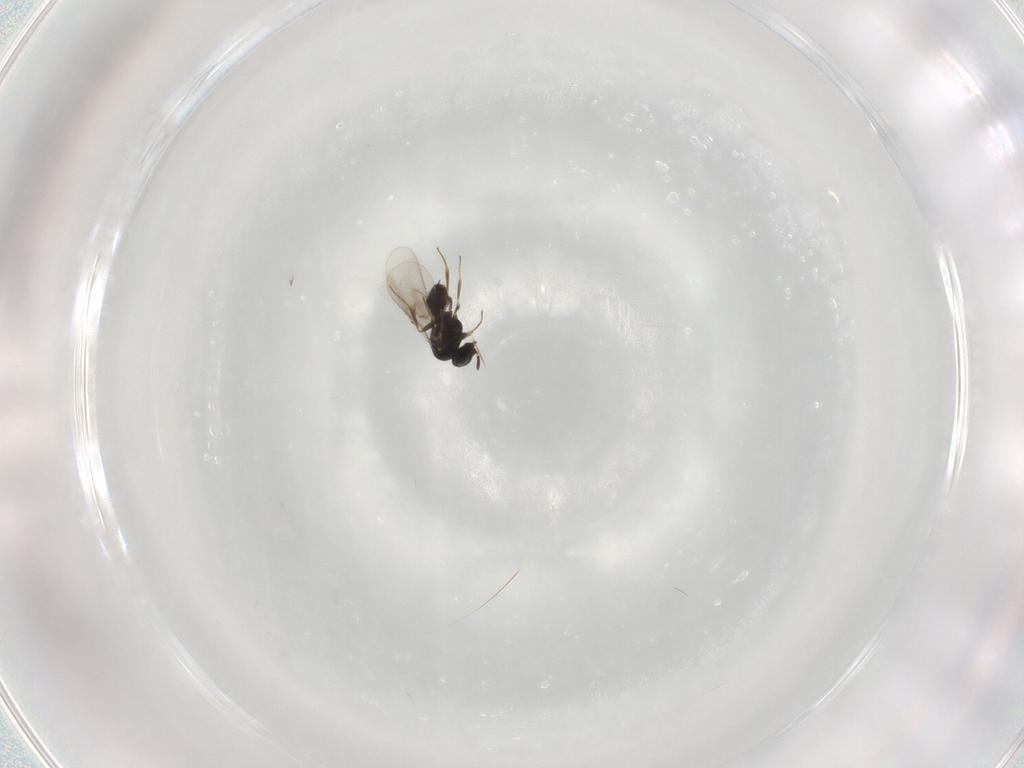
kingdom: Animalia
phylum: Arthropoda
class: Insecta
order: Hymenoptera
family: Scelionidae
